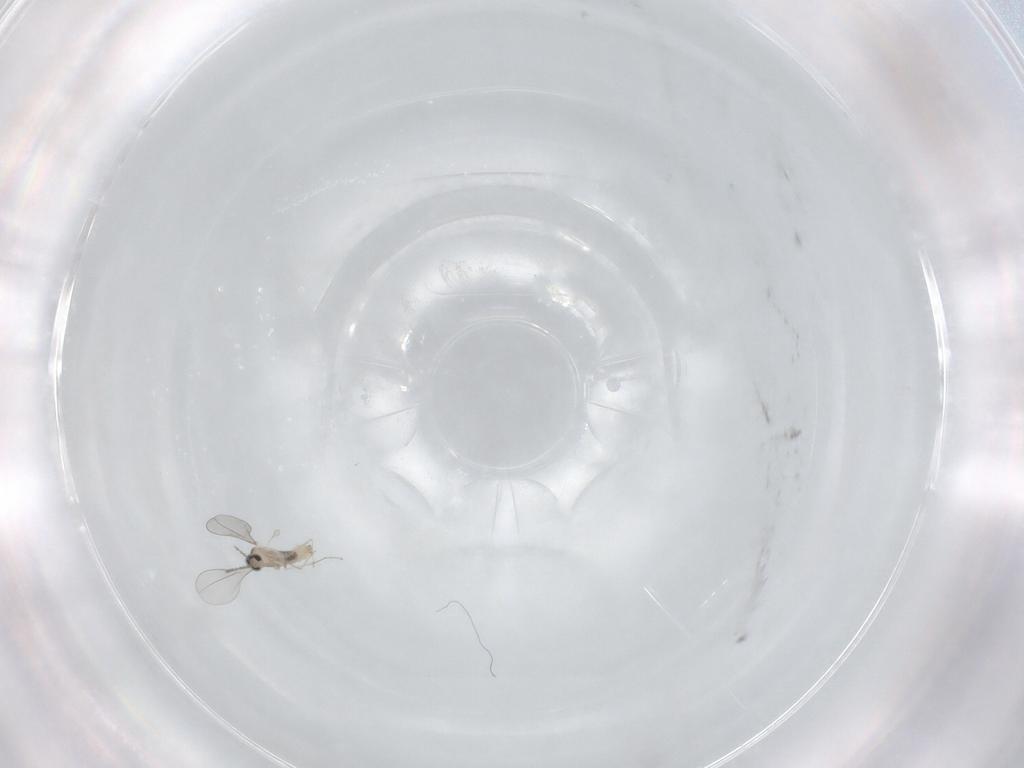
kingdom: Animalia
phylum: Arthropoda
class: Insecta
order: Diptera
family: Cecidomyiidae
